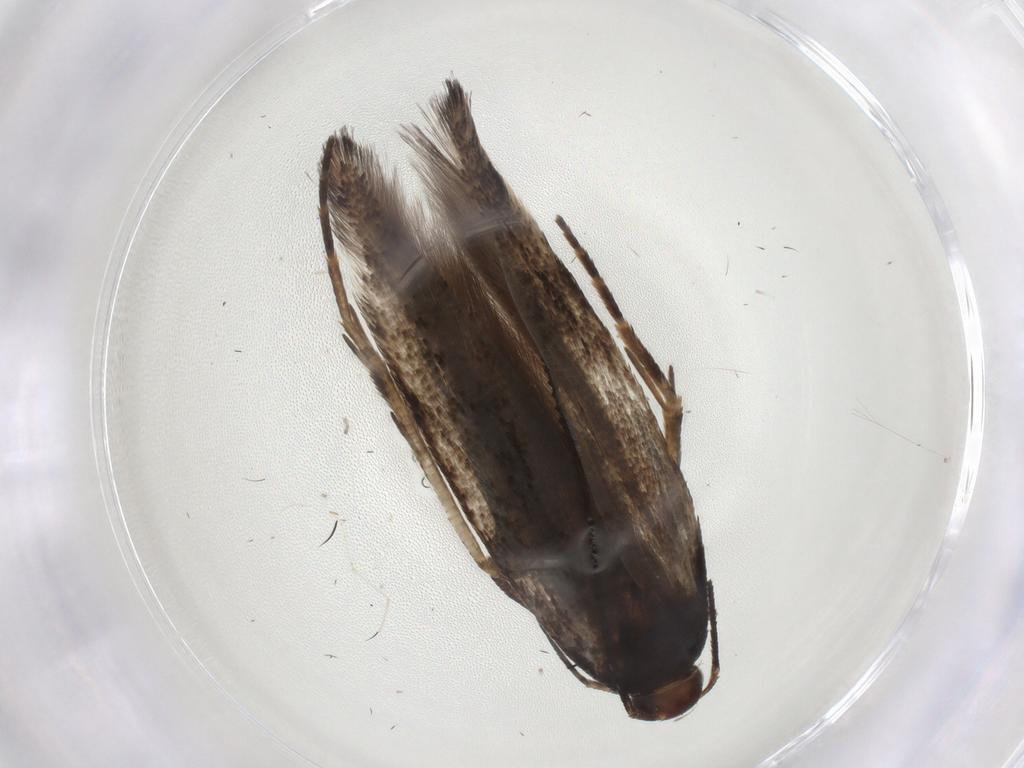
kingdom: Animalia
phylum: Arthropoda
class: Insecta
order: Lepidoptera
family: Gelechiidae
